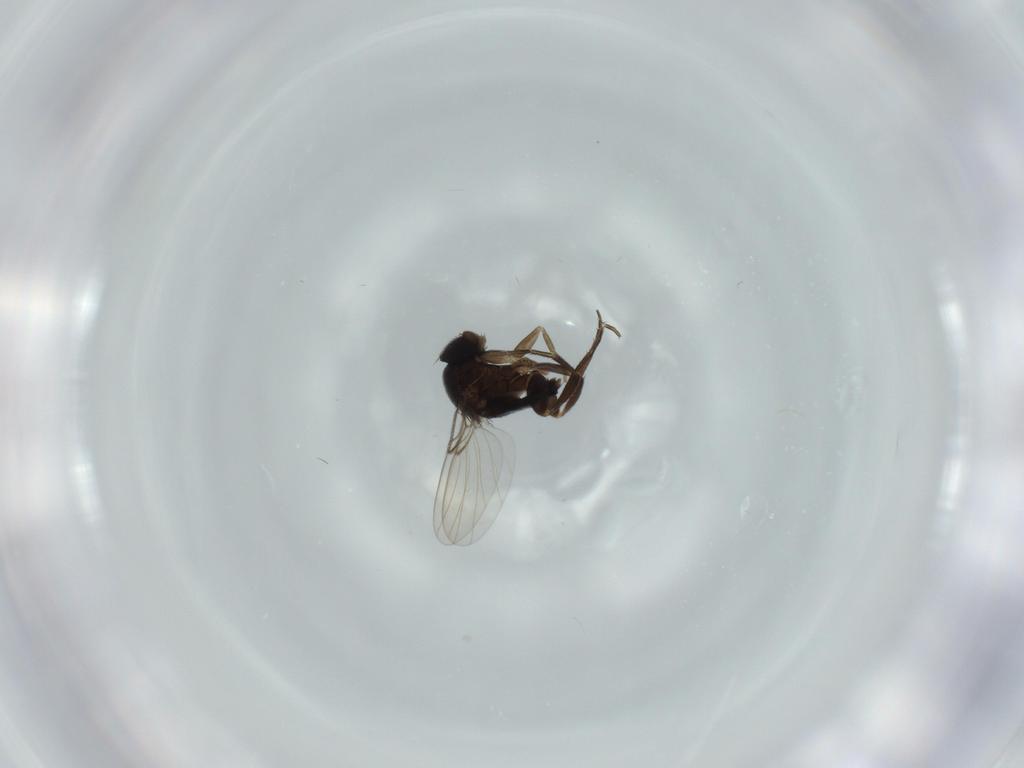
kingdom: Animalia
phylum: Arthropoda
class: Insecta
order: Diptera
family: Phoridae
